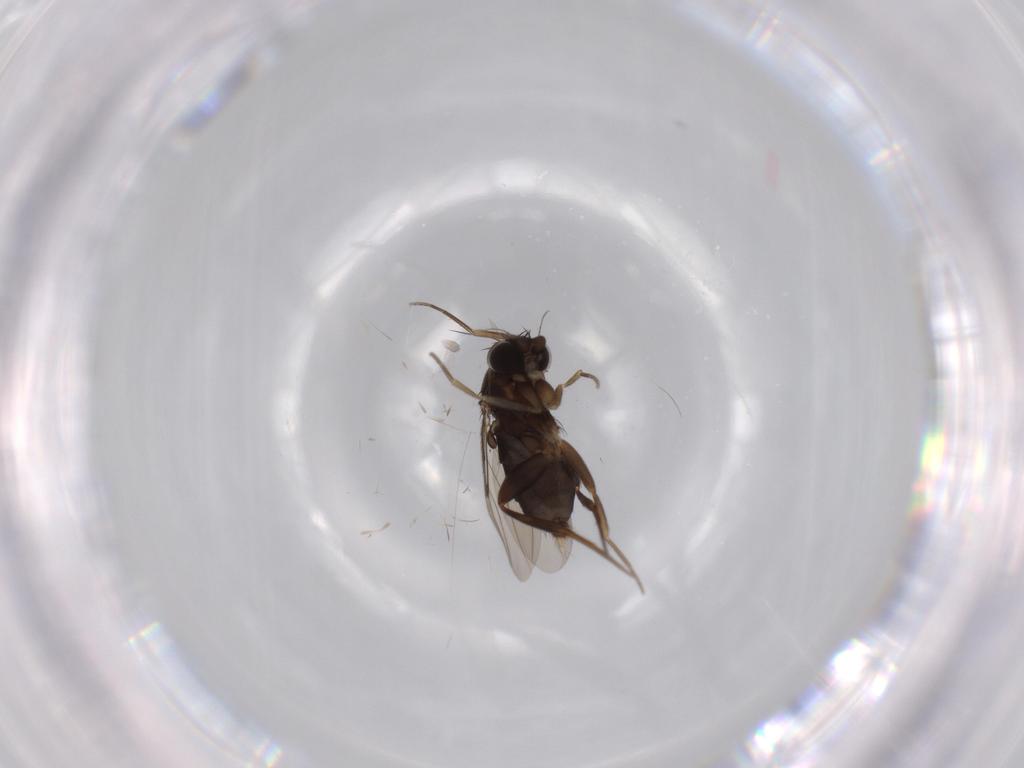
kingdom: Animalia
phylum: Arthropoda
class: Insecta
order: Diptera
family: Phoridae
